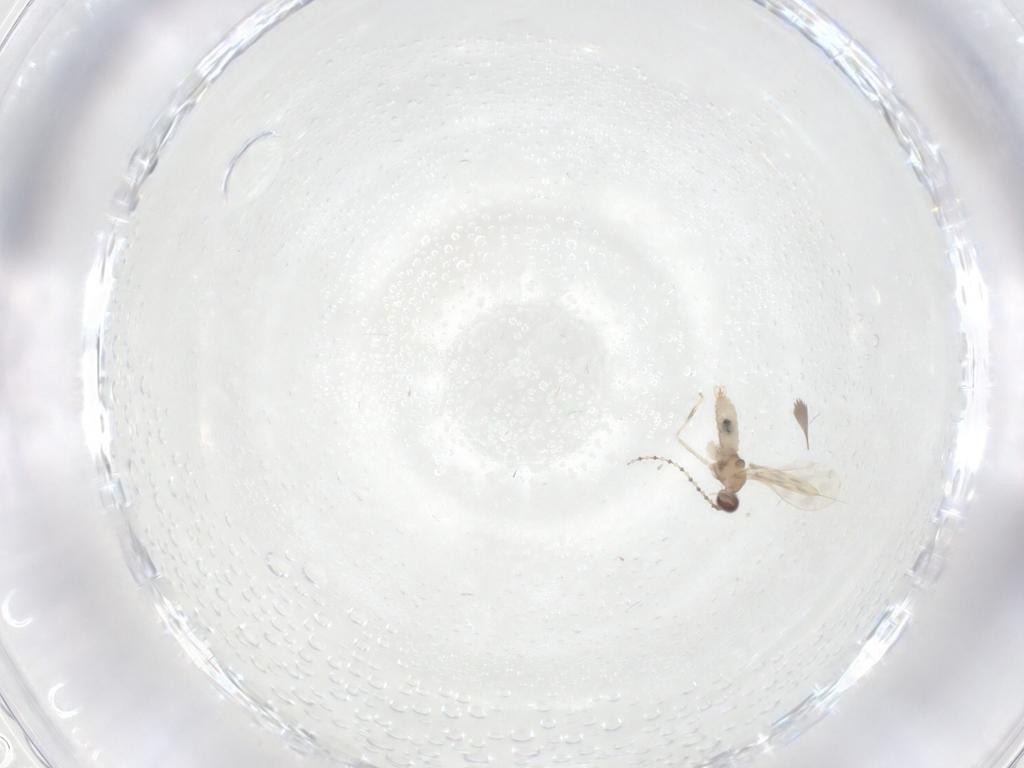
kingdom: Animalia
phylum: Arthropoda
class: Insecta
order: Diptera
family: Cecidomyiidae
